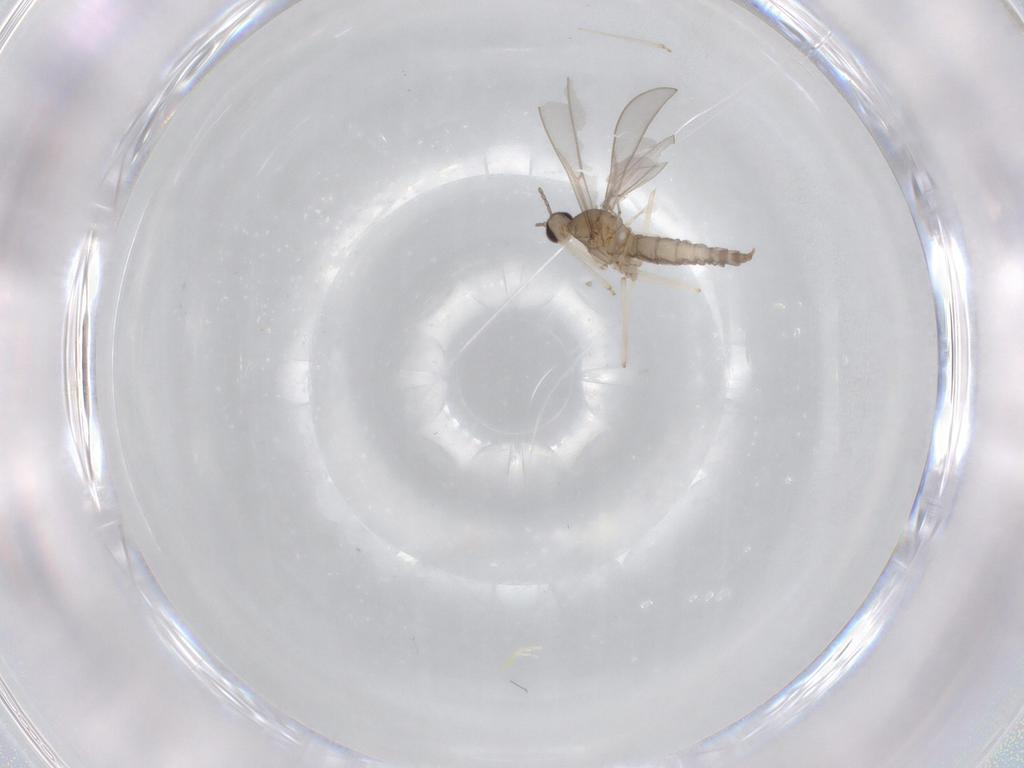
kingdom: Animalia
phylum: Arthropoda
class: Insecta
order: Diptera
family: Cecidomyiidae
